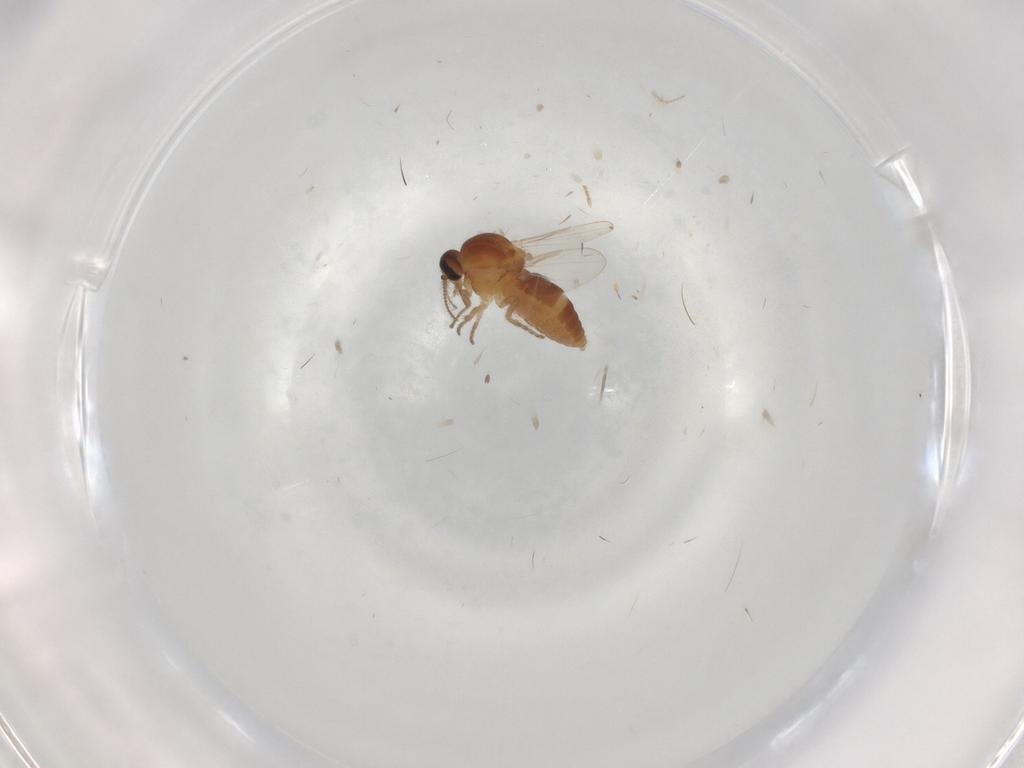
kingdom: Animalia
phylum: Arthropoda
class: Insecta
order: Diptera
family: Ceratopogonidae
